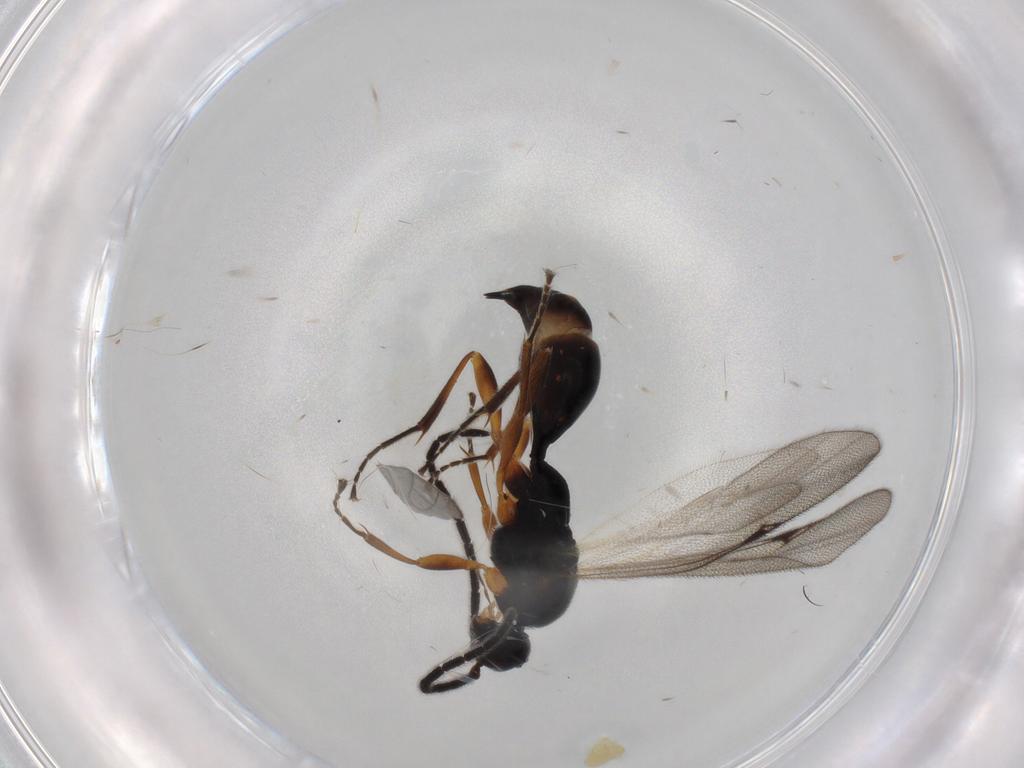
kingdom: Animalia
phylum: Arthropoda
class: Insecta
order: Hymenoptera
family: Proctotrupidae
